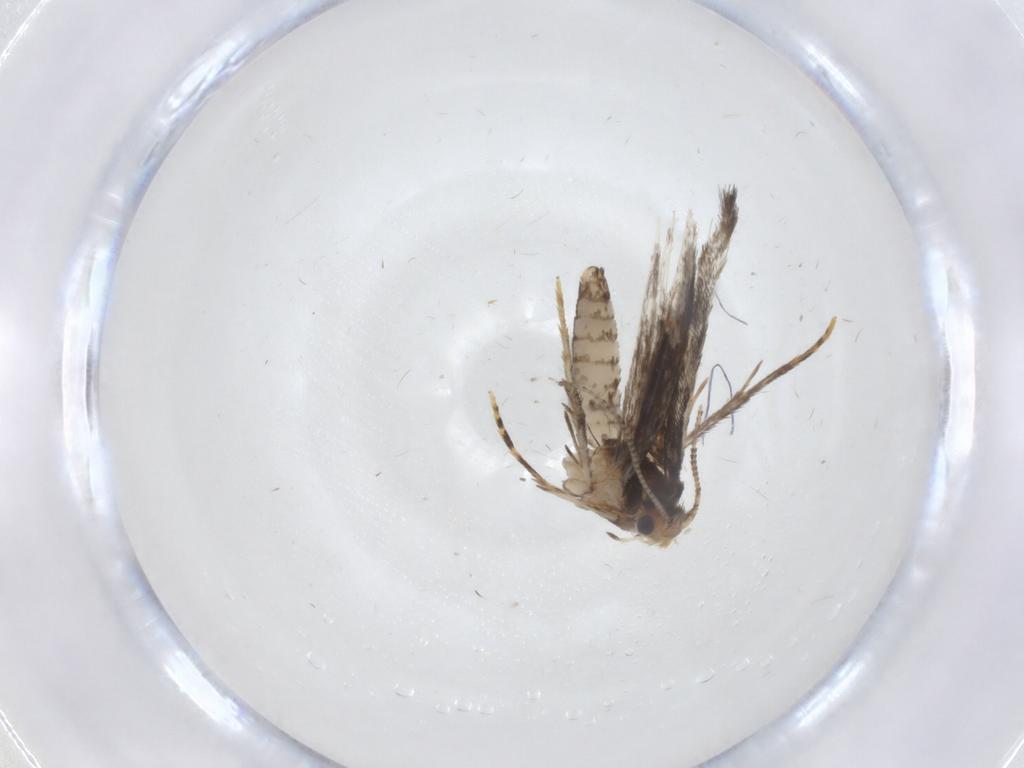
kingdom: Animalia
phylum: Arthropoda
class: Insecta
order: Lepidoptera
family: Tineidae
